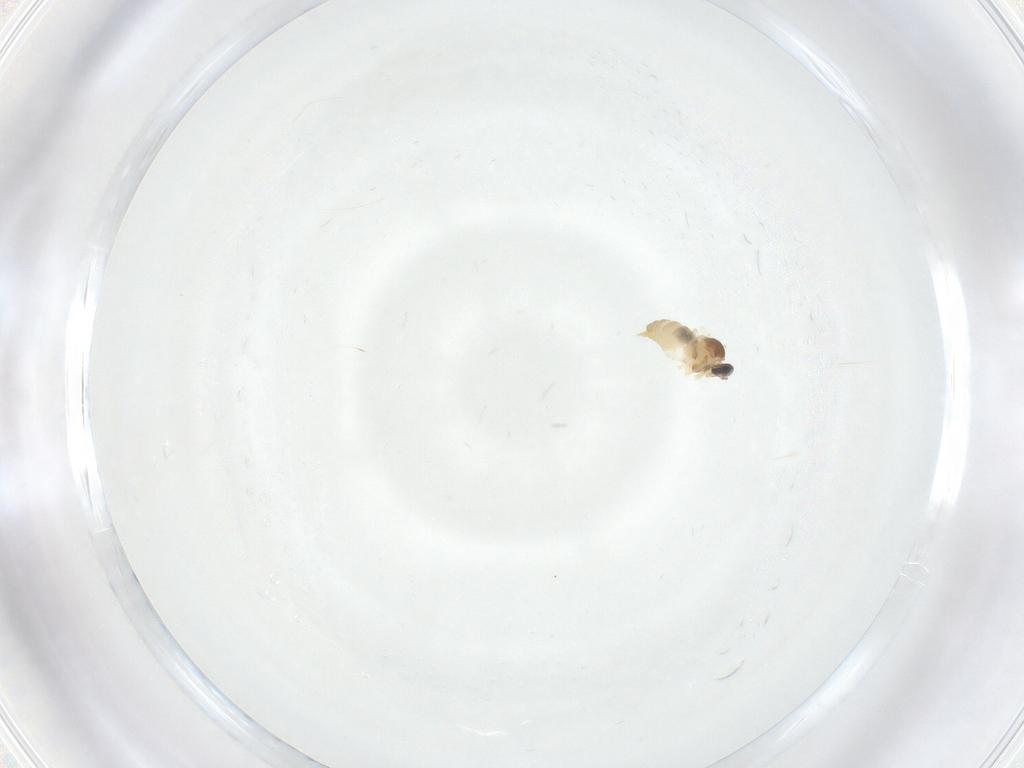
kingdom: Animalia
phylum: Arthropoda
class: Insecta
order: Diptera
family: Cecidomyiidae
